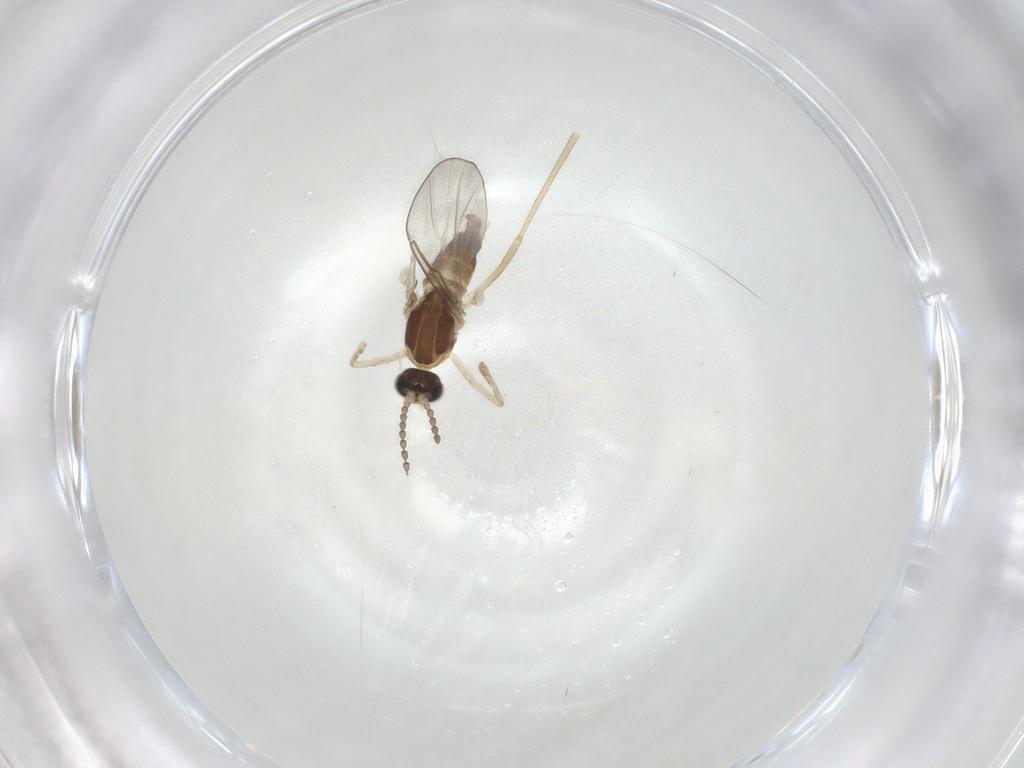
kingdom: Animalia
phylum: Arthropoda
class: Insecta
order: Diptera
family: Cecidomyiidae
